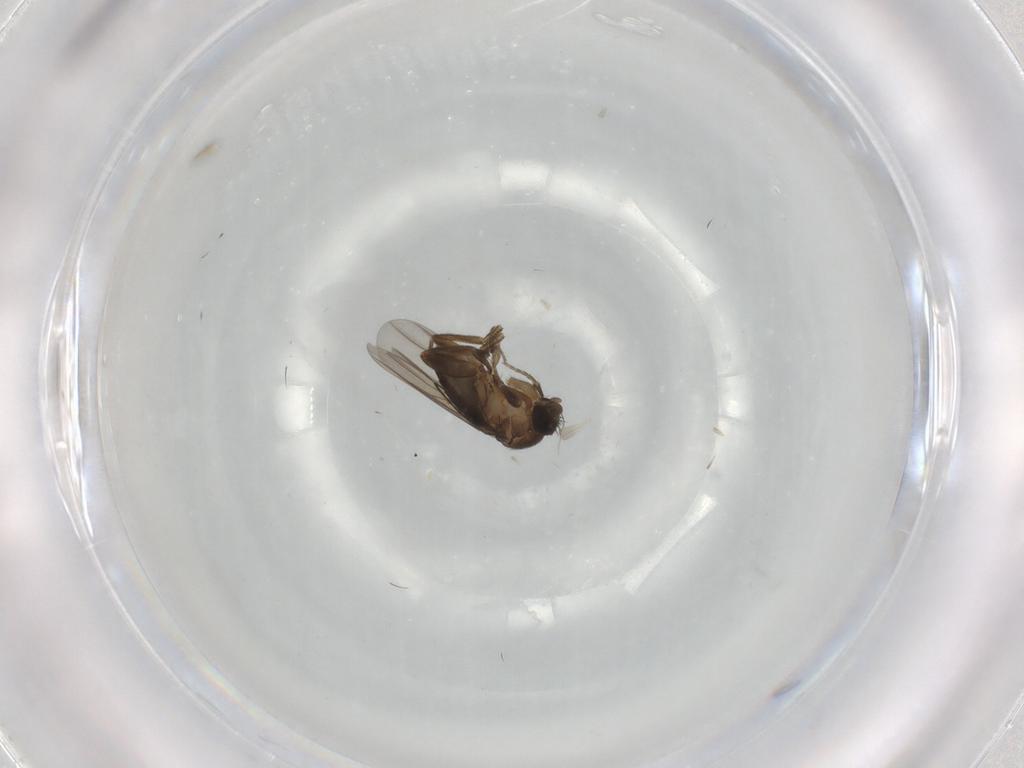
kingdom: Animalia
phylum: Arthropoda
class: Insecta
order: Diptera
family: Phoridae
